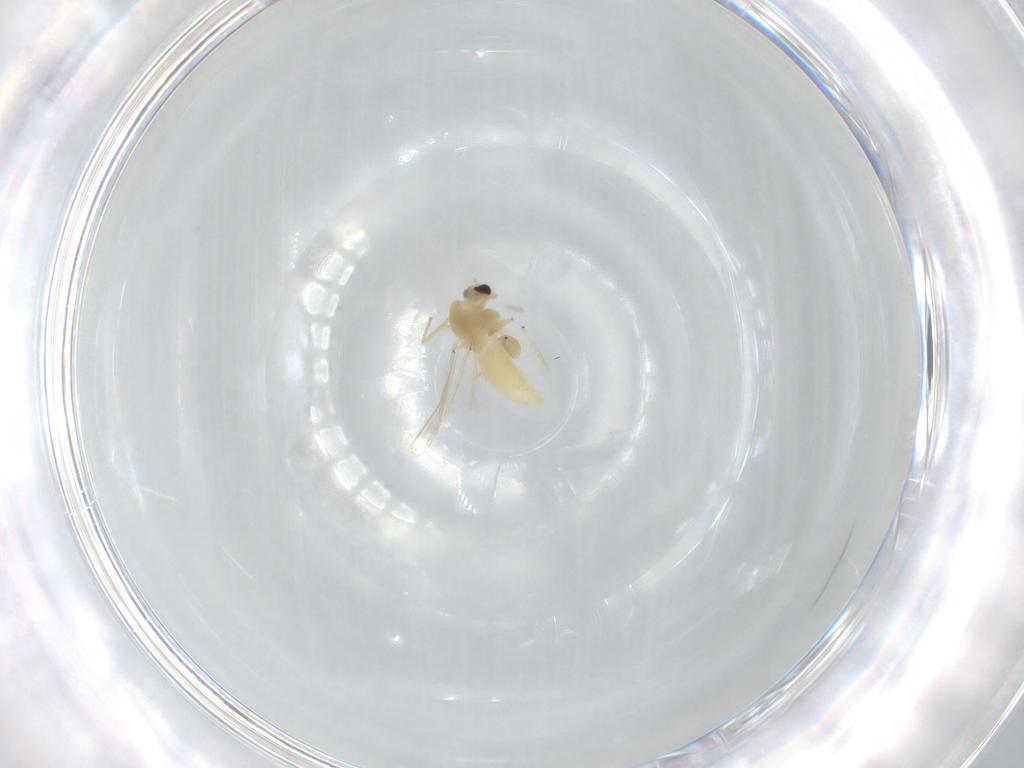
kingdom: Animalia
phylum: Arthropoda
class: Insecta
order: Diptera
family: Chironomidae
